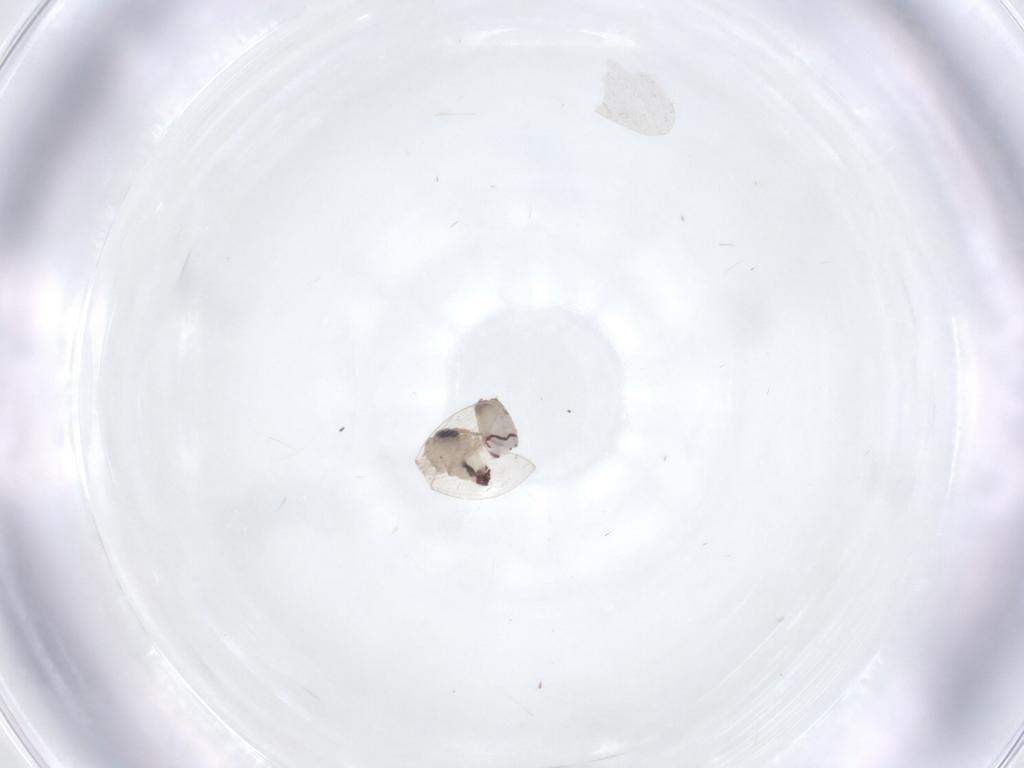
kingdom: Animalia
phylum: Arthropoda
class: Insecta
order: Diptera
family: Psychodidae
